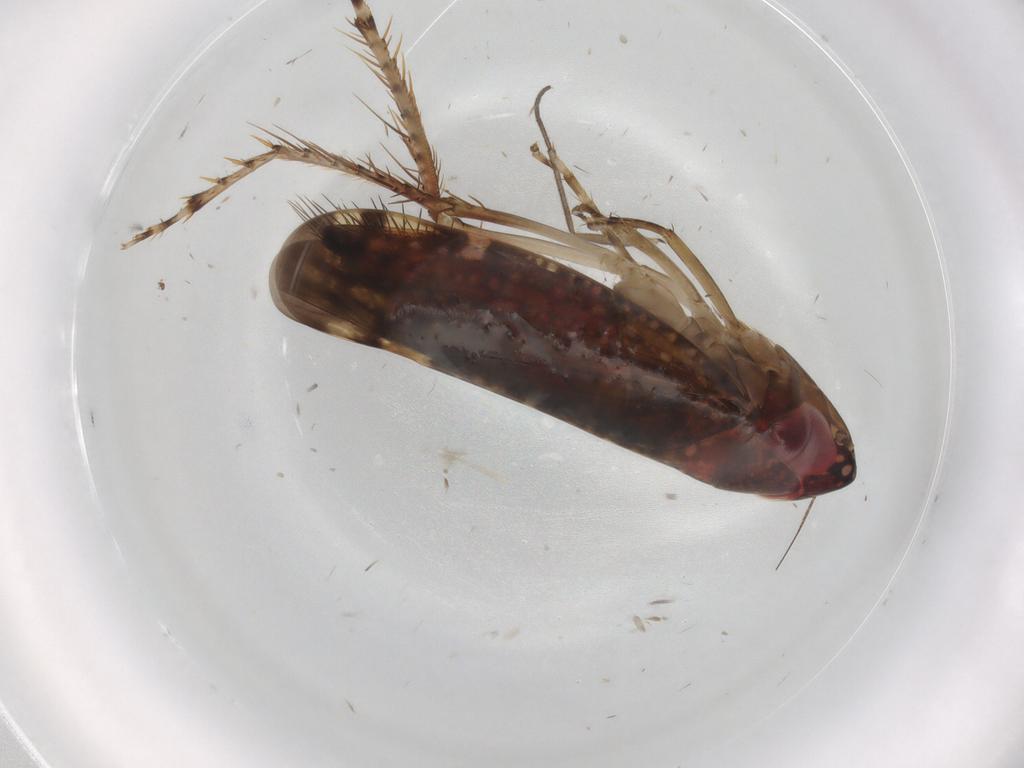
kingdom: Animalia
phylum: Arthropoda
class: Insecta
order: Hemiptera
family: Cicadellidae
